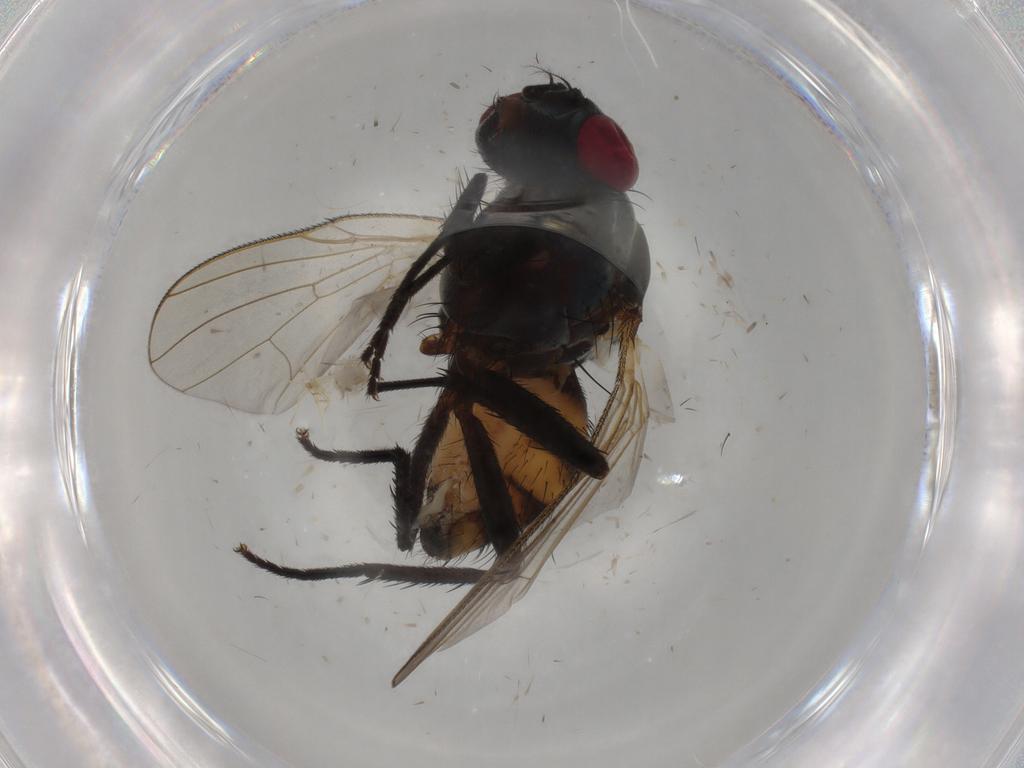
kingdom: Animalia
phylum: Arthropoda
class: Insecta
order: Diptera
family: Anthomyiidae
